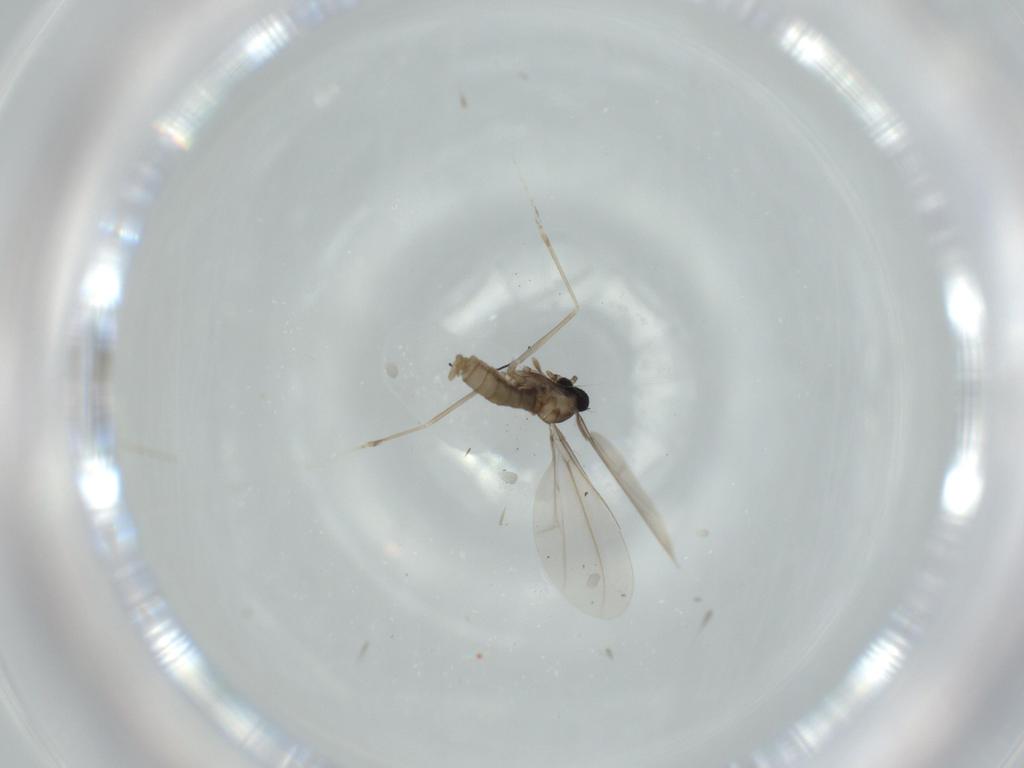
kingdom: Animalia
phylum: Arthropoda
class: Insecta
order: Diptera
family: Cecidomyiidae
